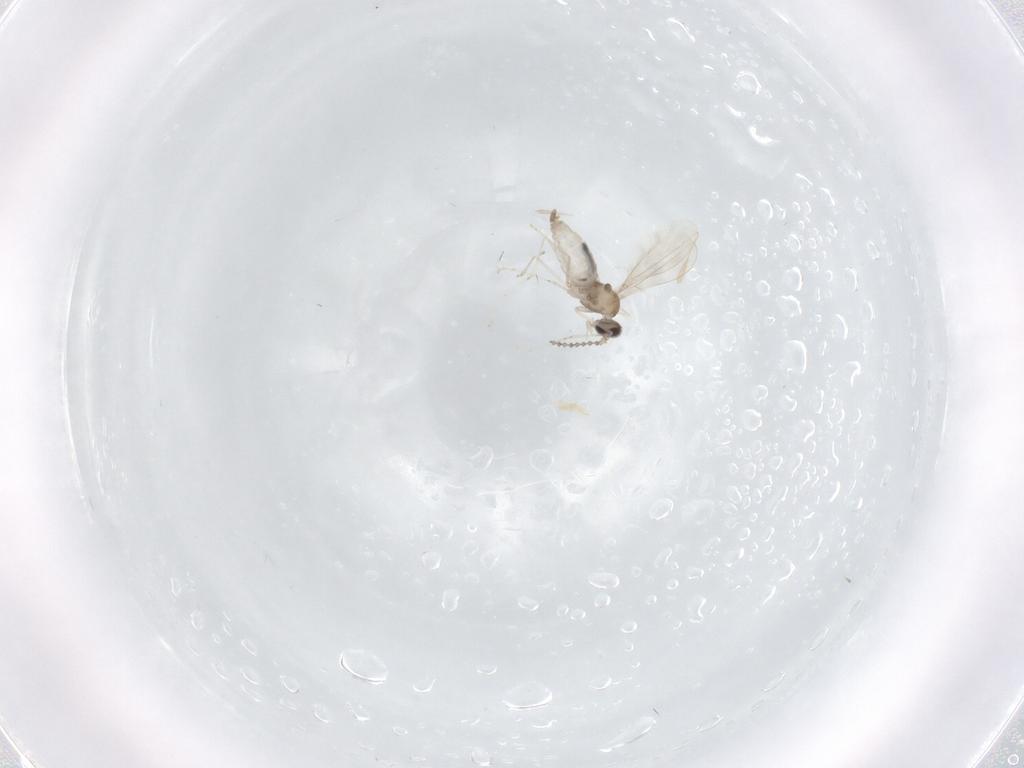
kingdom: Animalia
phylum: Arthropoda
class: Insecta
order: Diptera
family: Cecidomyiidae
